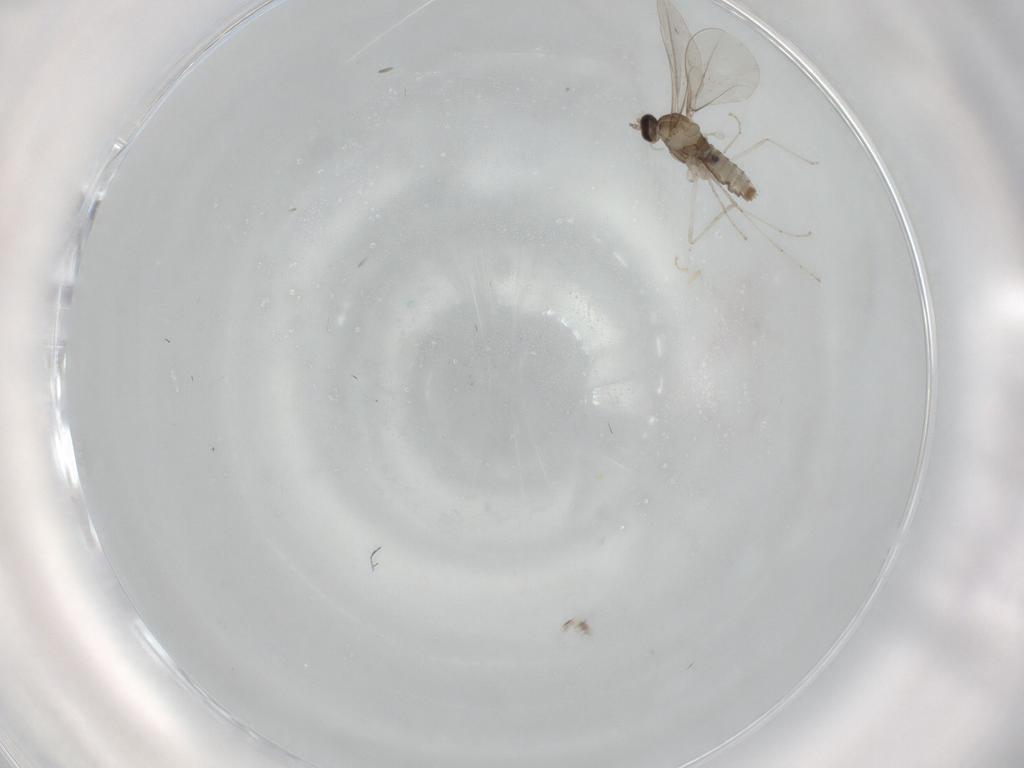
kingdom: Animalia
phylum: Arthropoda
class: Insecta
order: Diptera
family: Cecidomyiidae
